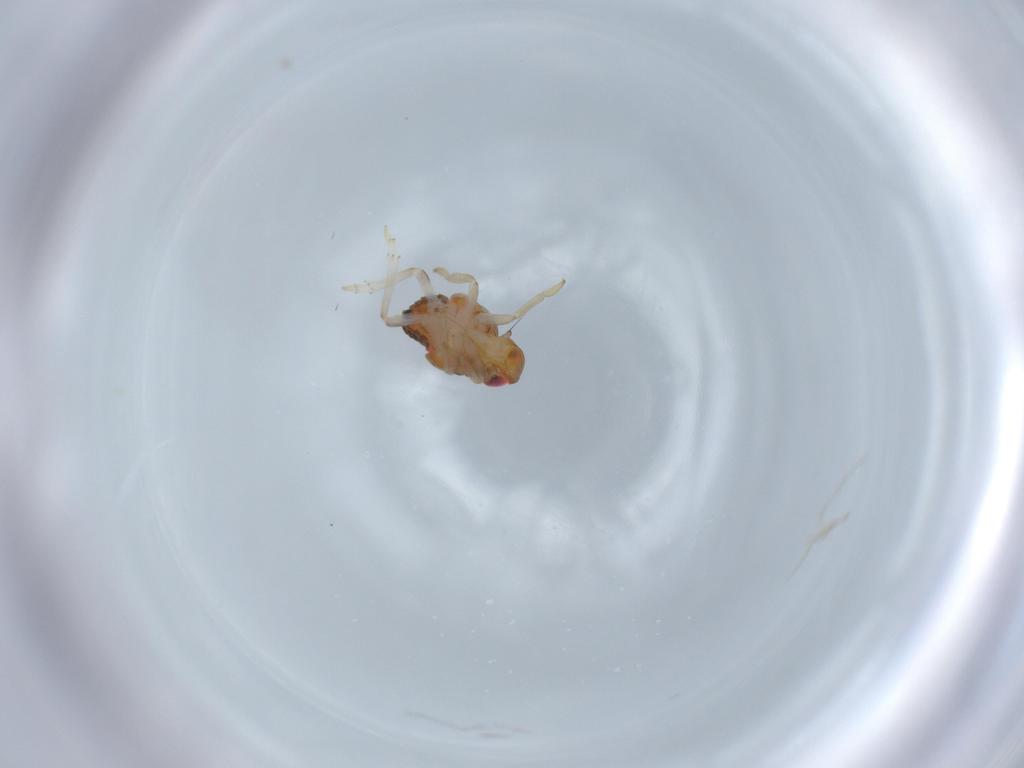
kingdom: Animalia
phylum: Arthropoda
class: Insecta
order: Hemiptera
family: Issidae
